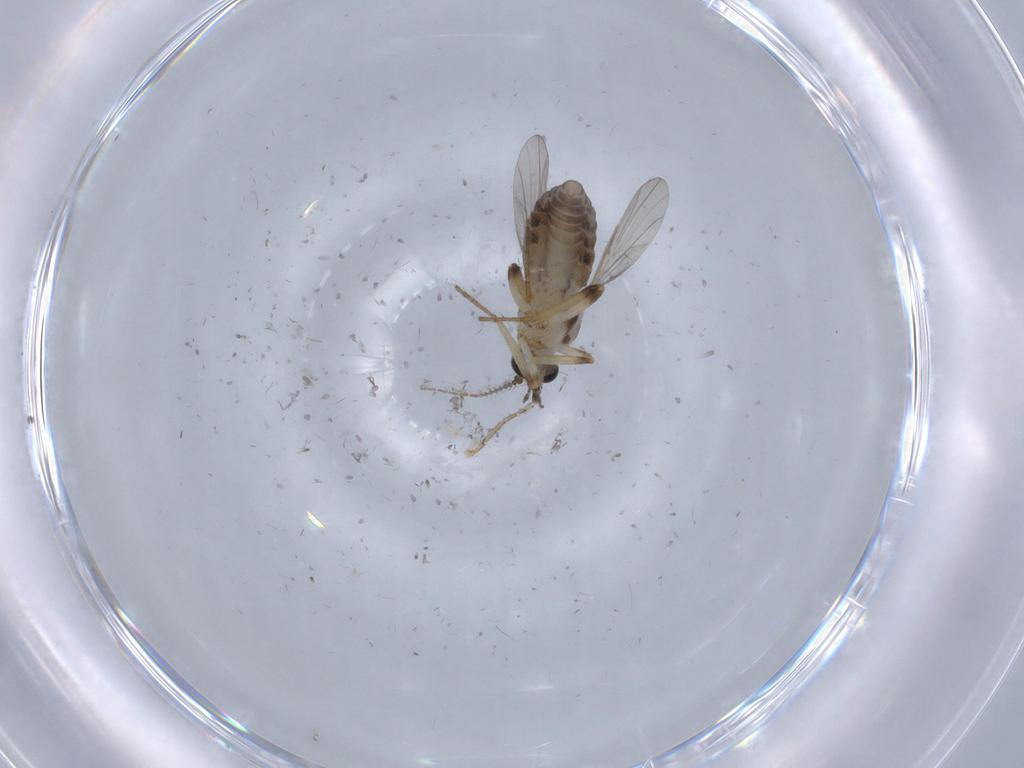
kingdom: Animalia
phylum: Arthropoda
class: Insecta
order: Diptera
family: Ceratopogonidae
